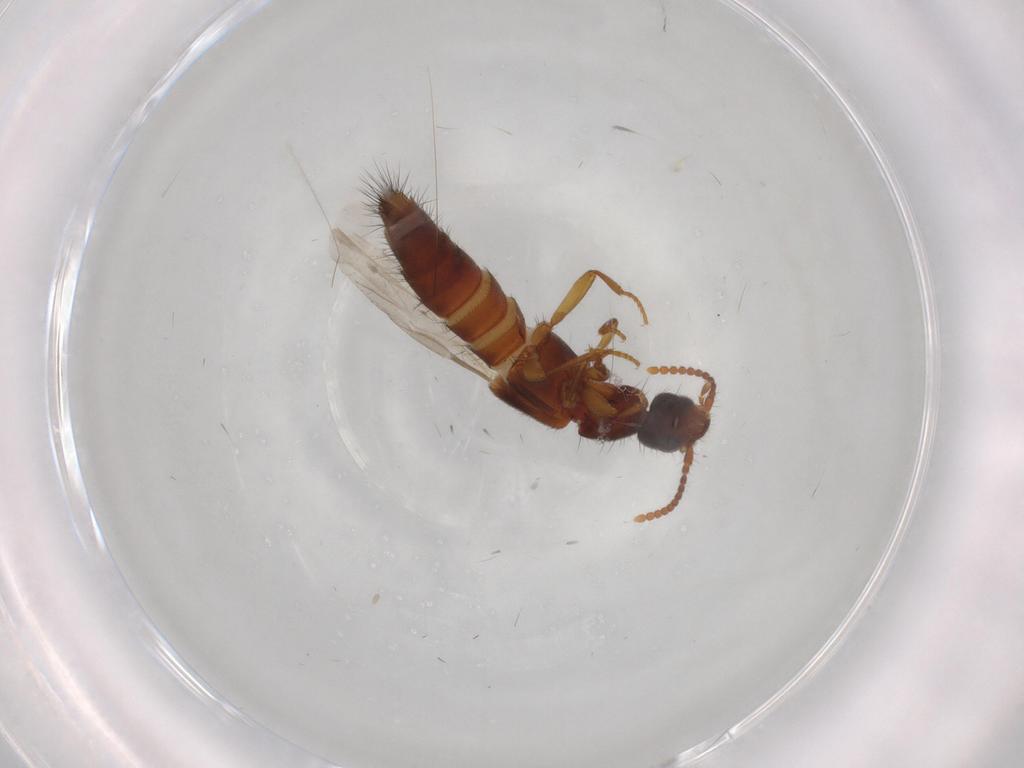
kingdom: Animalia
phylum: Arthropoda
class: Insecta
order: Coleoptera
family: Staphylinidae
